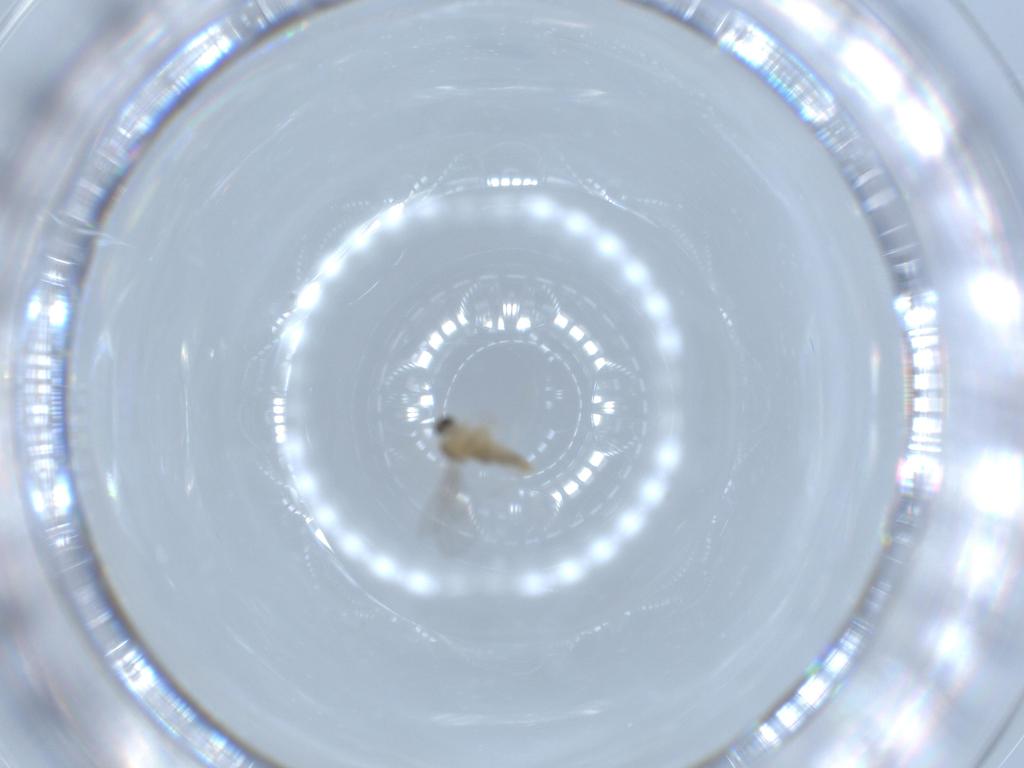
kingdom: Animalia
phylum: Arthropoda
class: Insecta
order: Diptera
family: Cecidomyiidae
